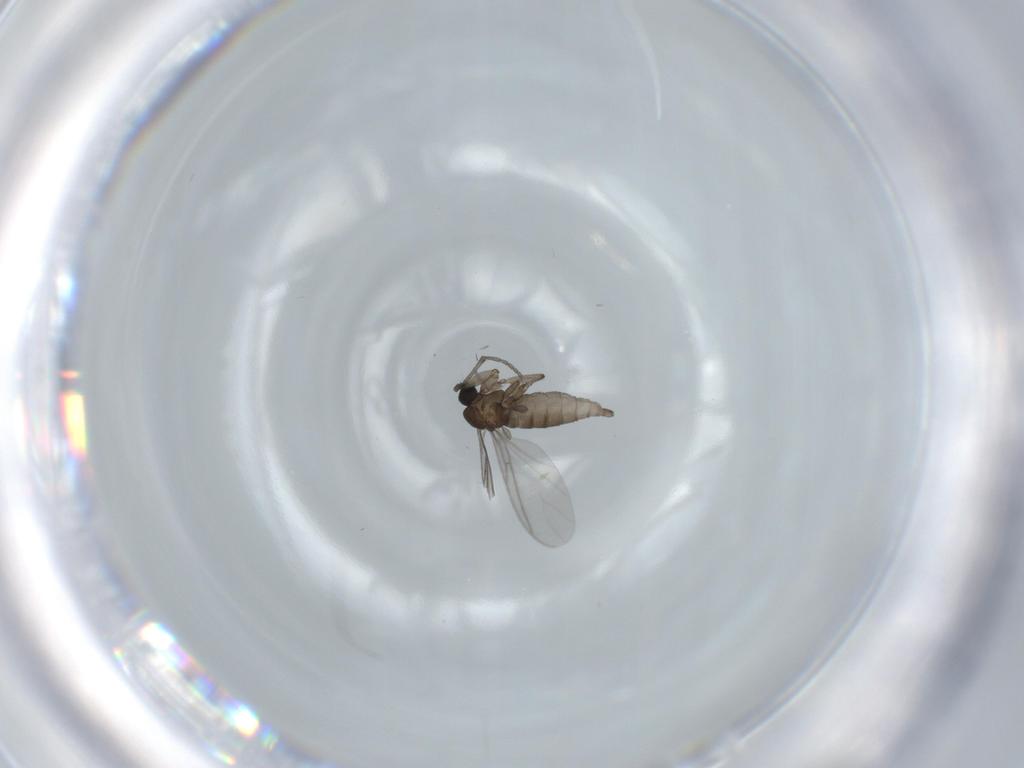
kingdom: Animalia
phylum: Arthropoda
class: Insecta
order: Diptera
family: Sciaridae
